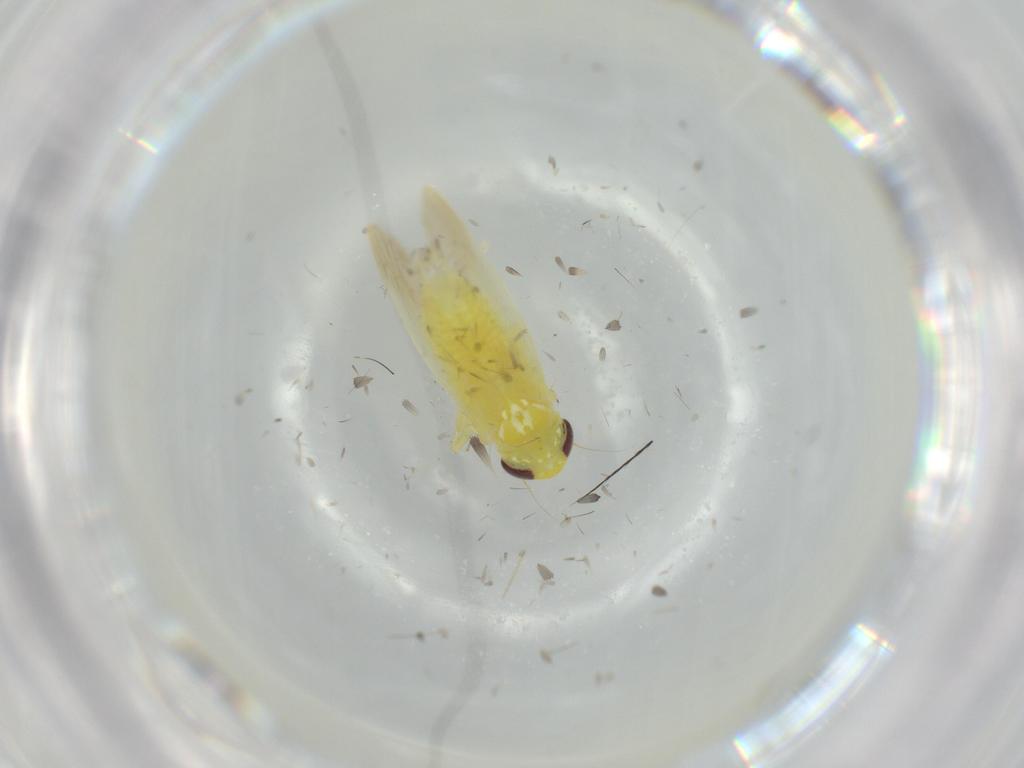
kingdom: Animalia
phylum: Arthropoda
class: Insecta
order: Hemiptera
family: Cercopidae
